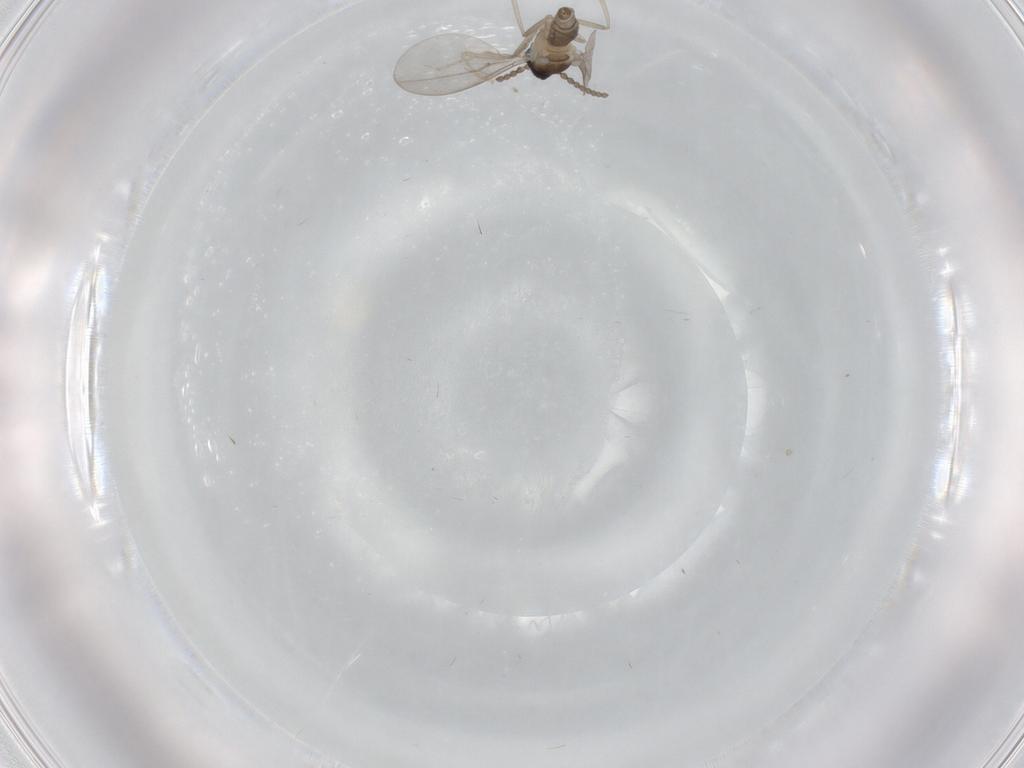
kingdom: Animalia
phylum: Arthropoda
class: Insecta
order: Diptera
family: Cecidomyiidae
